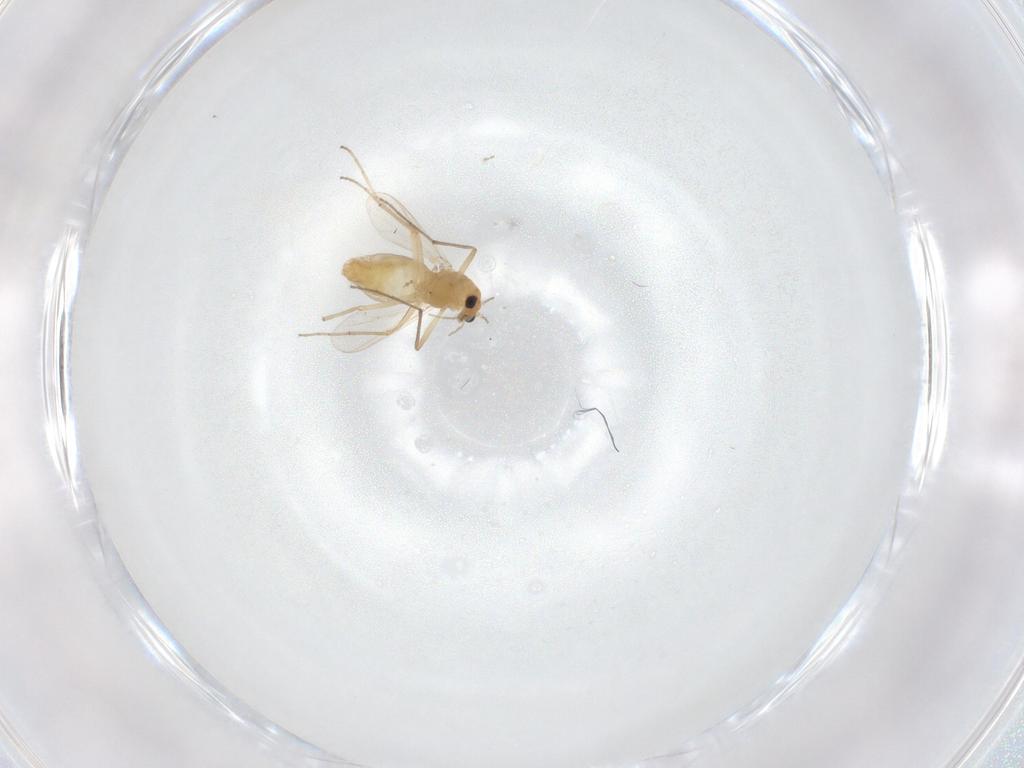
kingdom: Animalia
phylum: Arthropoda
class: Insecta
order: Diptera
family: Chironomidae
